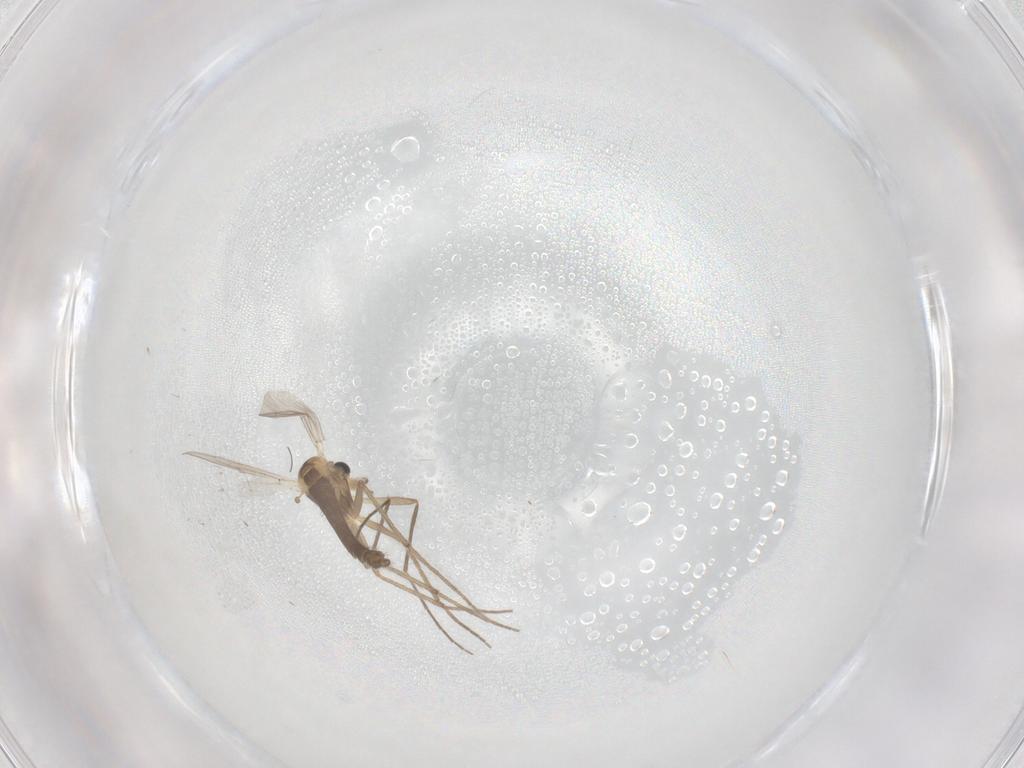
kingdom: Animalia
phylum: Arthropoda
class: Insecta
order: Diptera
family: Chironomidae
